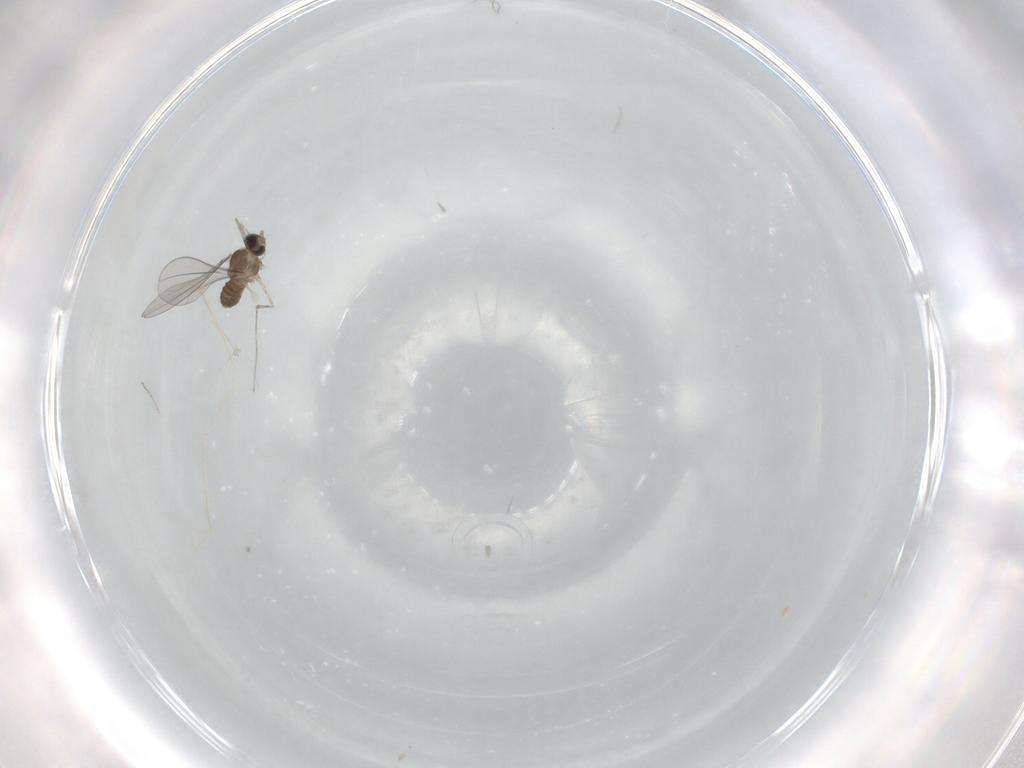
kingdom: Animalia
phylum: Arthropoda
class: Insecta
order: Diptera
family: Cecidomyiidae
